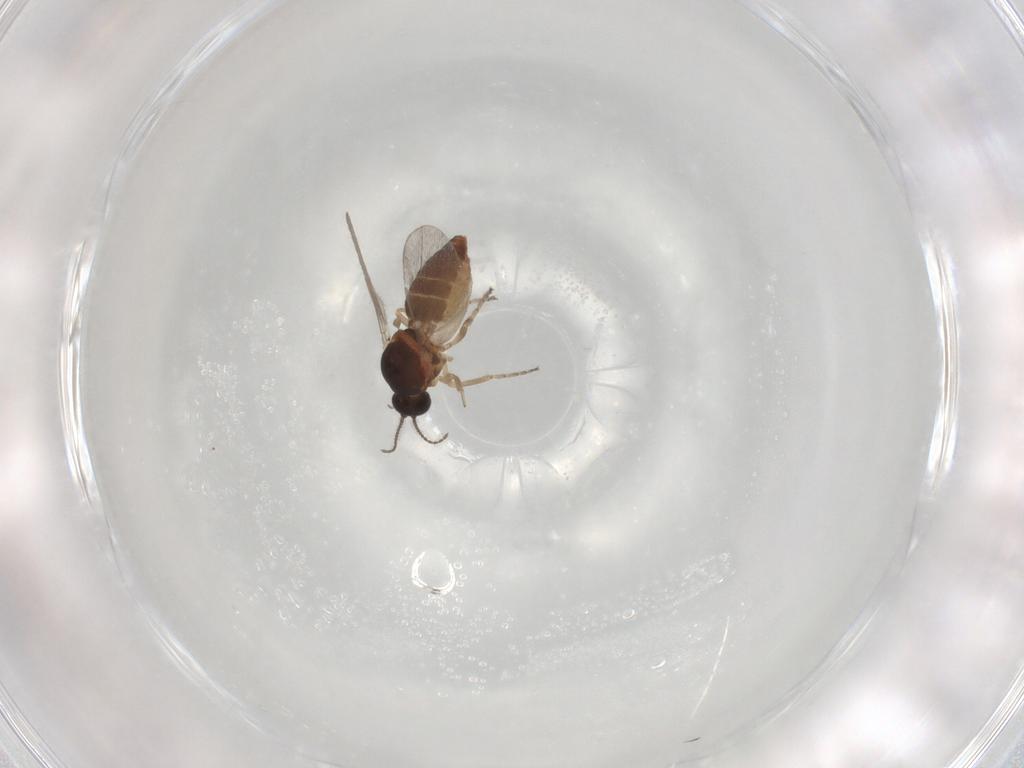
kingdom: Animalia
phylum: Arthropoda
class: Insecta
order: Diptera
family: Ceratopogonidae
